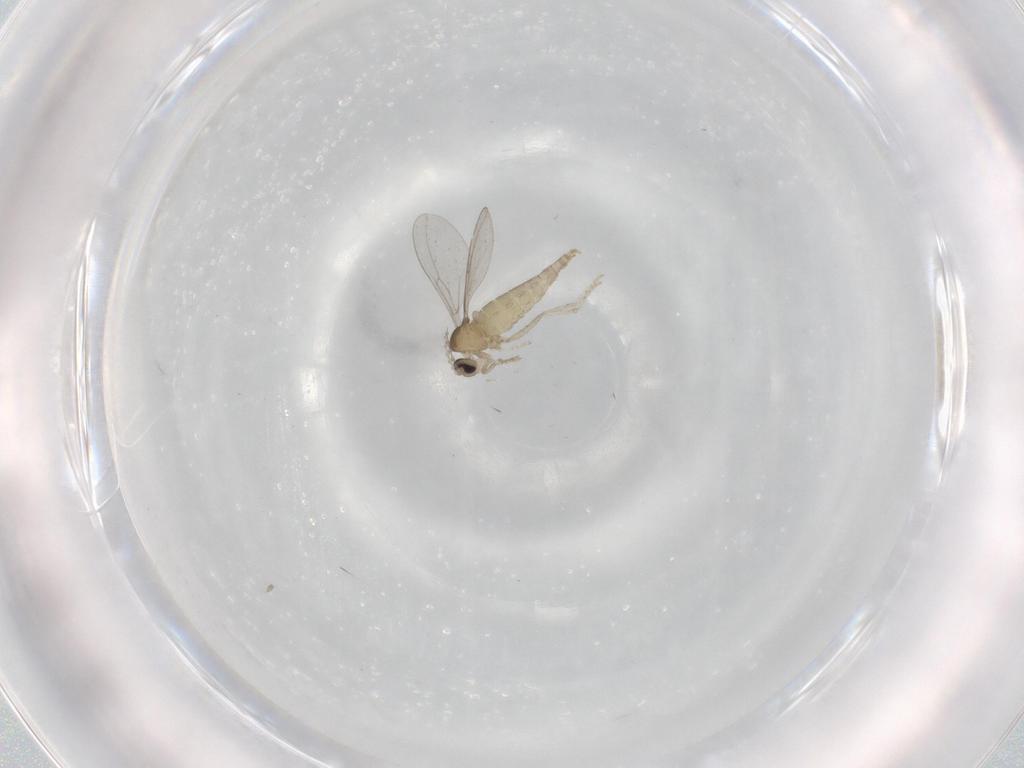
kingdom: Animalia
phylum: Arthropoda
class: Insecta
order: Diptera
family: Cecidomyiidae
